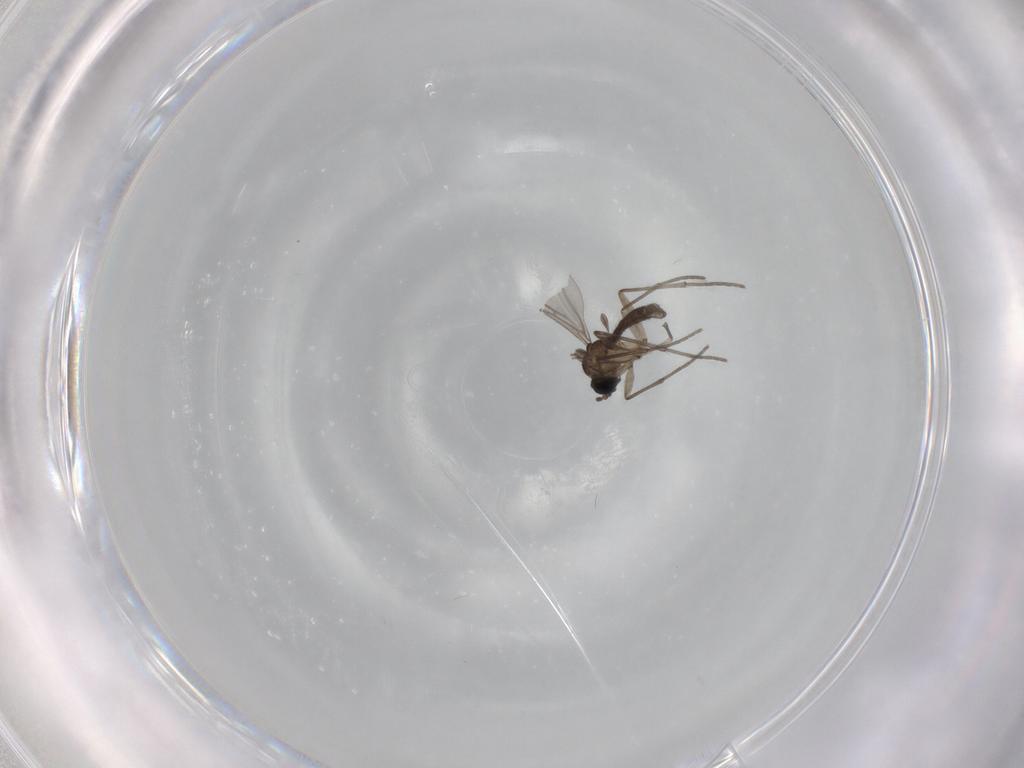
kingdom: Animalia
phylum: Arthropoda
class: Insecta
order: Diptera
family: Sciaridae
